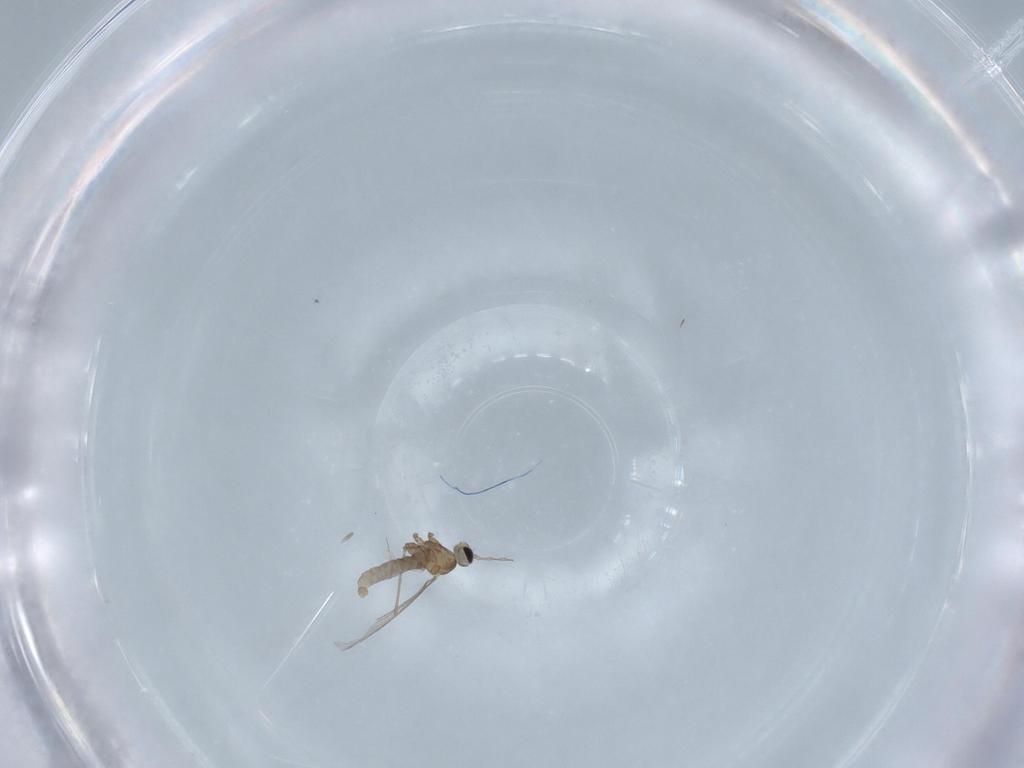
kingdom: Animalia
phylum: Arthropoda
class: Insecta
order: Diptera
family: Cecidomyiidae
